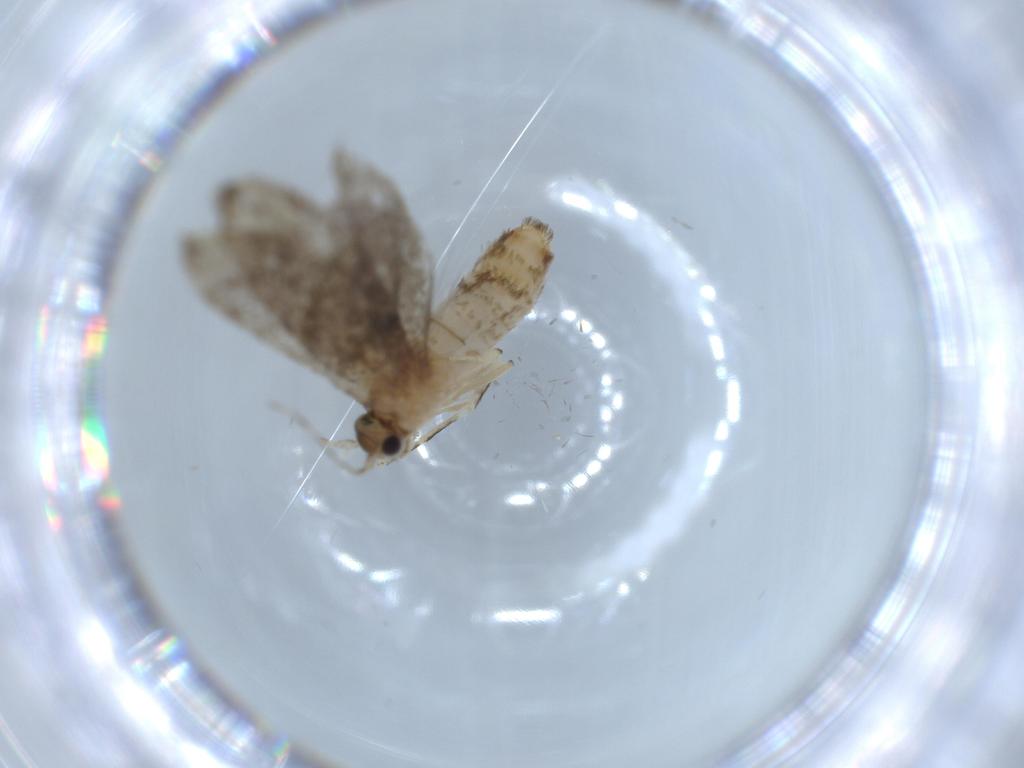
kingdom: Animalia
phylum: Arthropoda
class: Insecta
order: Lepidoptera
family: Tineidae
